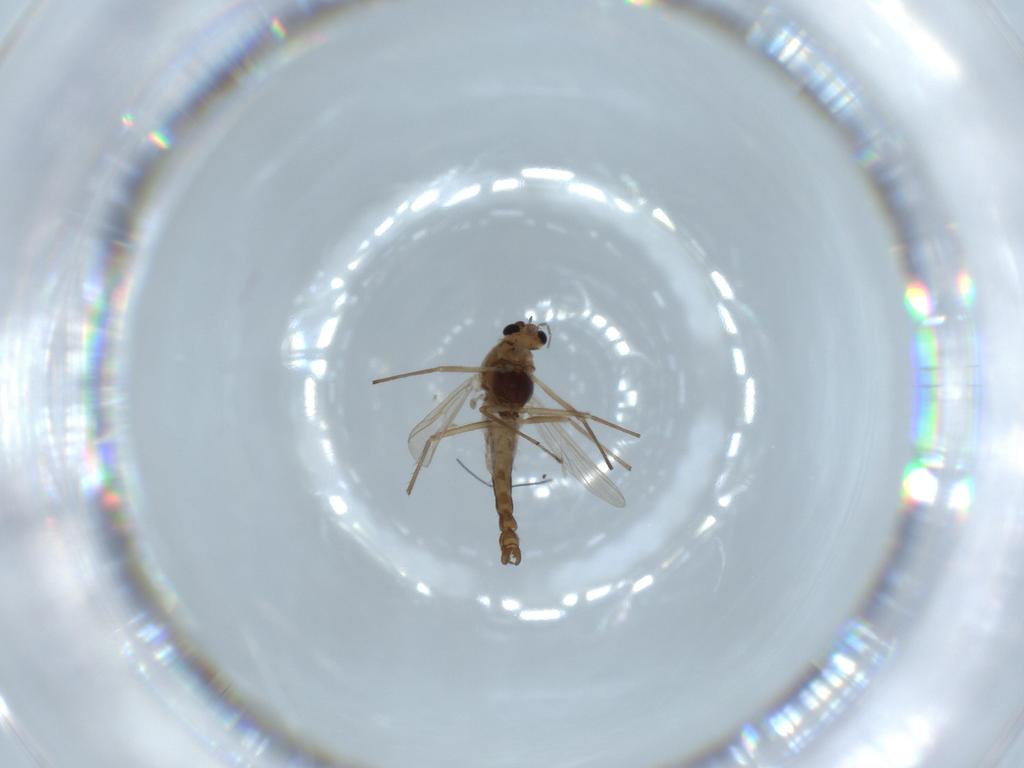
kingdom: Animalia
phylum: Arthropoda
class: Insecta
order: Diptera
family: Chironomidae
